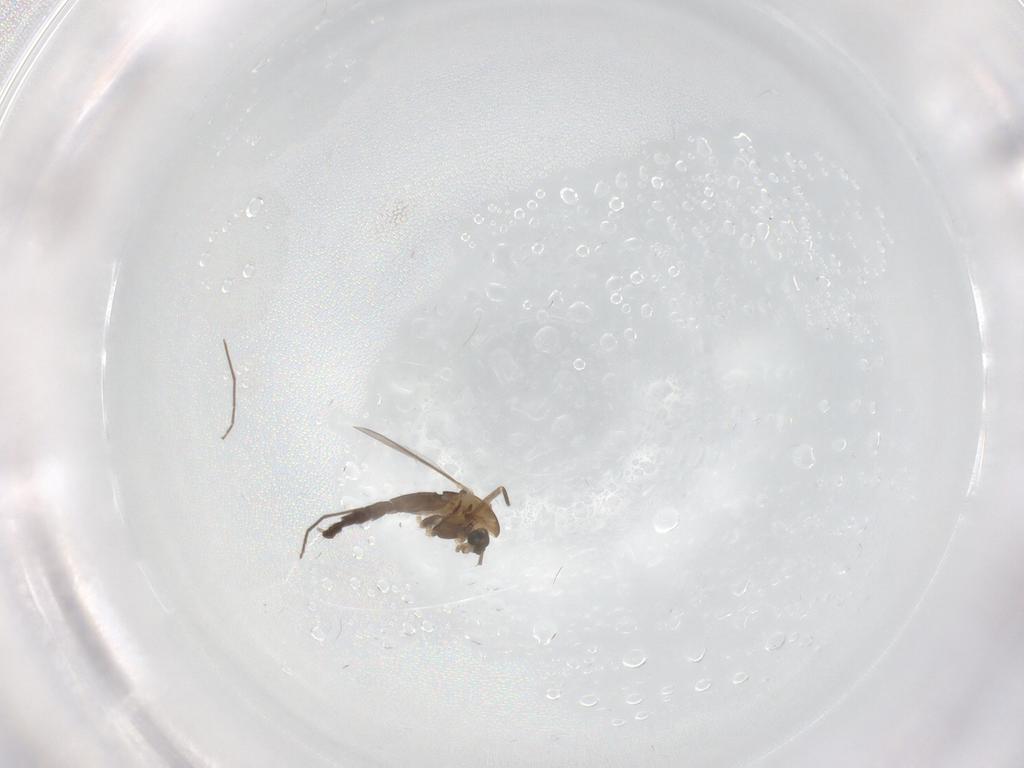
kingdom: Animalia
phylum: Arthropoda
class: Insecta
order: Diptera
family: Chironomidae
